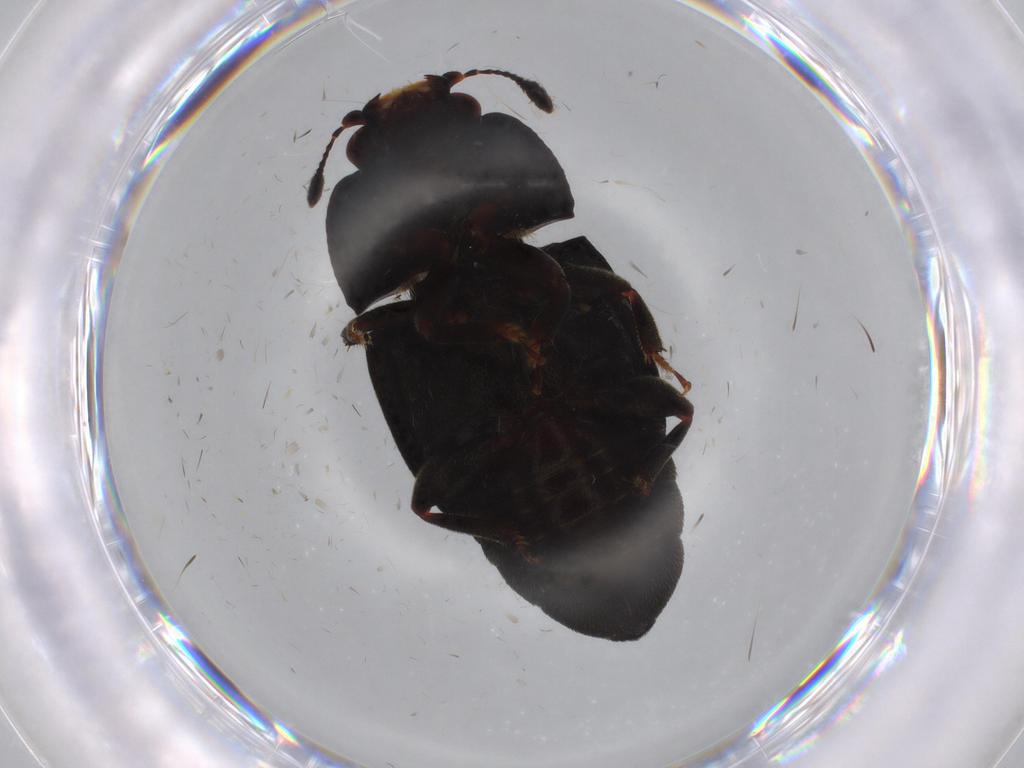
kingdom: Animalia
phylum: Arthropoda
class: Insecta
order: Coleoptera
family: Nitidulidae
